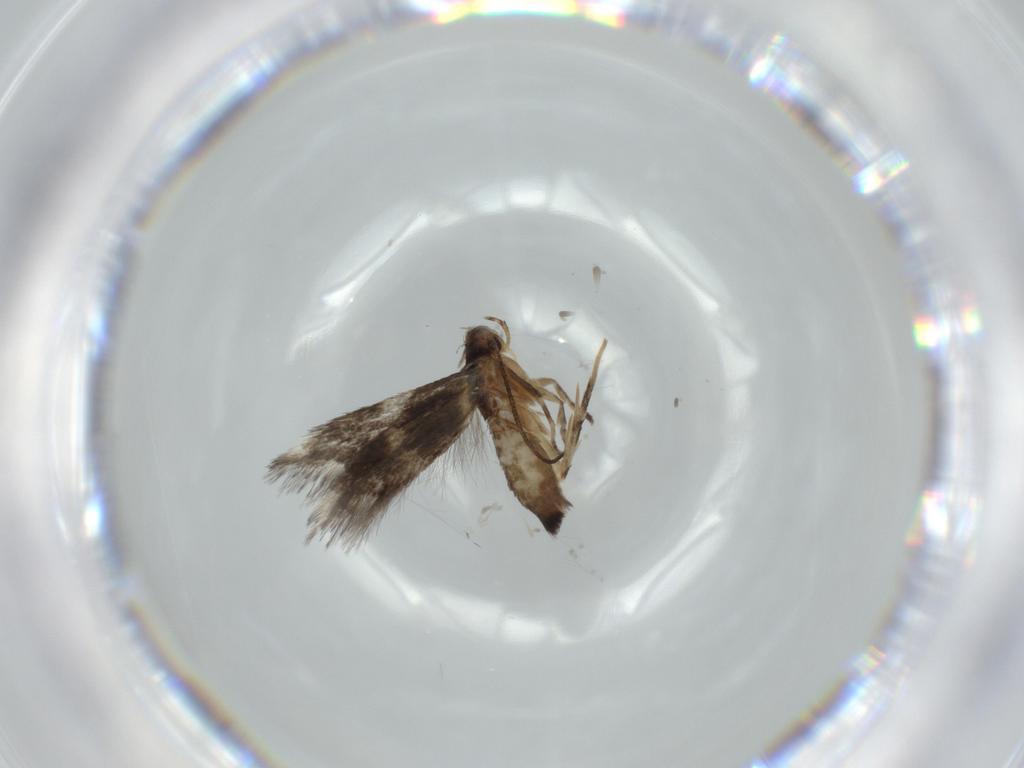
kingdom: Animalia
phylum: Arthropoda
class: Insecta
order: Lepidoptera
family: Cosmopterigidae
